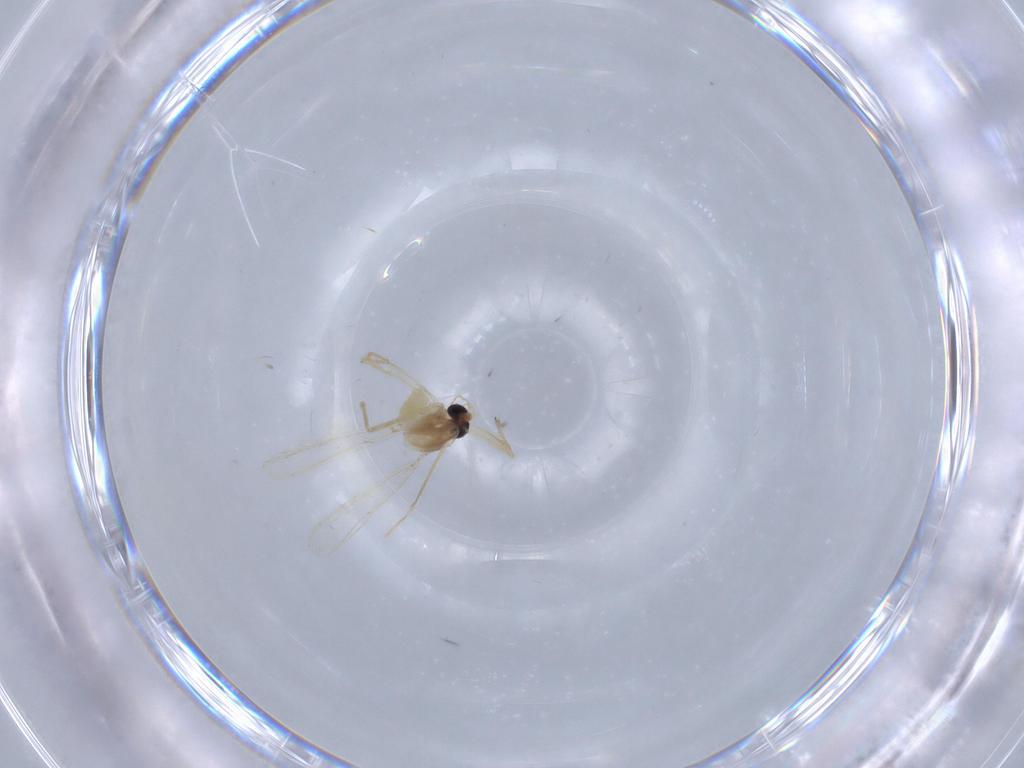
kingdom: Animalia
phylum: Arthropoda
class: Insecta
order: Diptera
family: Chironomidae
